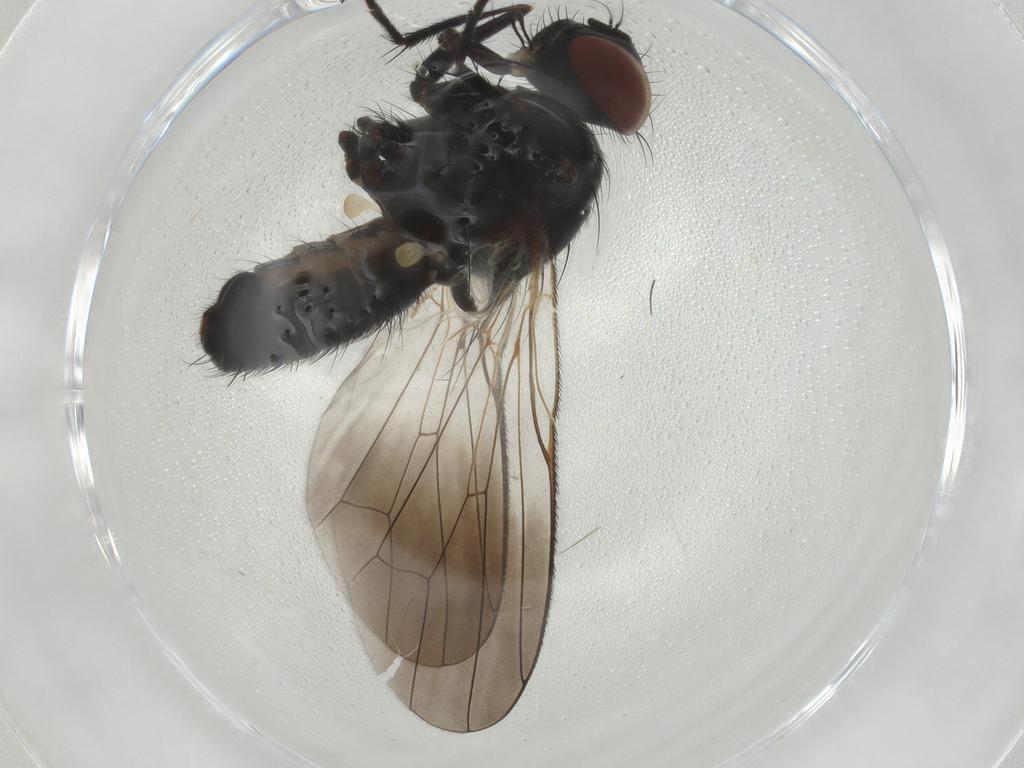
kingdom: Animalia
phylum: Arthropoda
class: Insecta
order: Diptera
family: Muscidae
